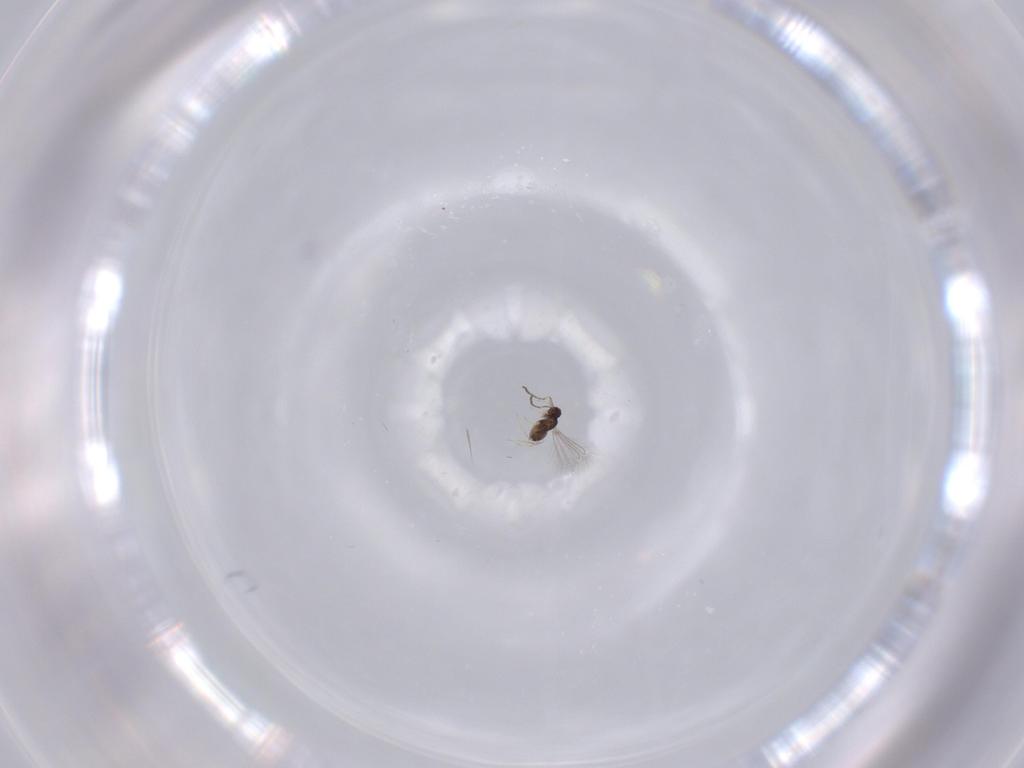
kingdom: Animalia
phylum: Arthropoda
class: Insecta
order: Hymenoptera
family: Mymaridae
